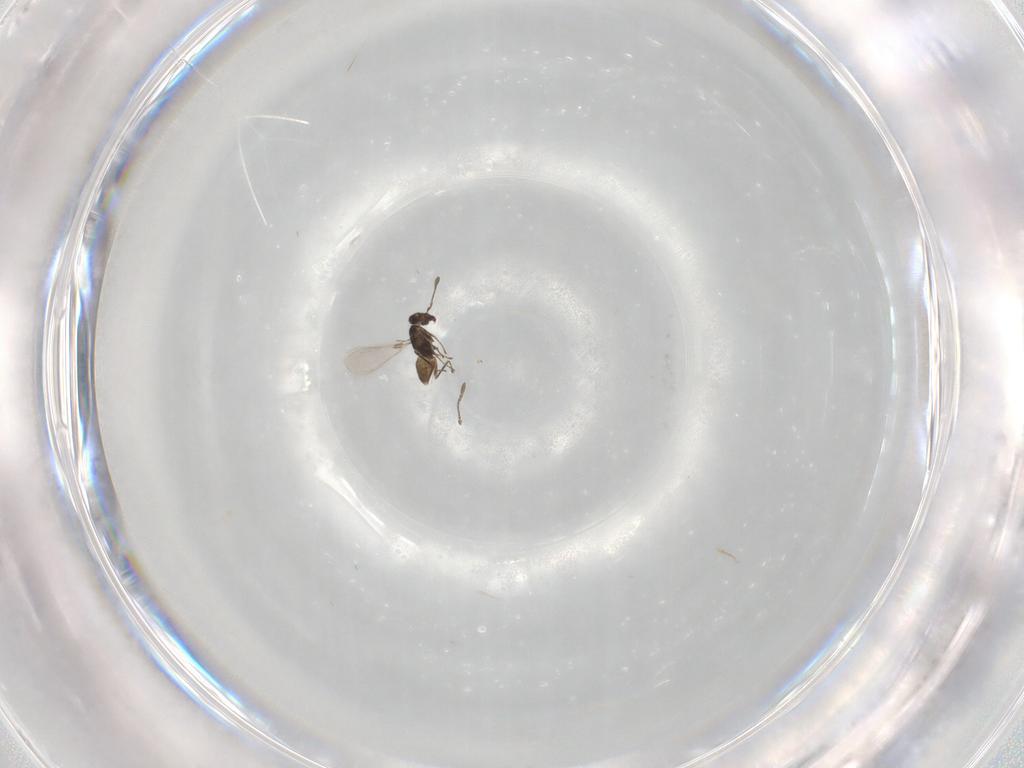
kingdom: Animalia
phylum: Arthropoda
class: Insecta
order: Hymenoptera
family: Mymaridae
